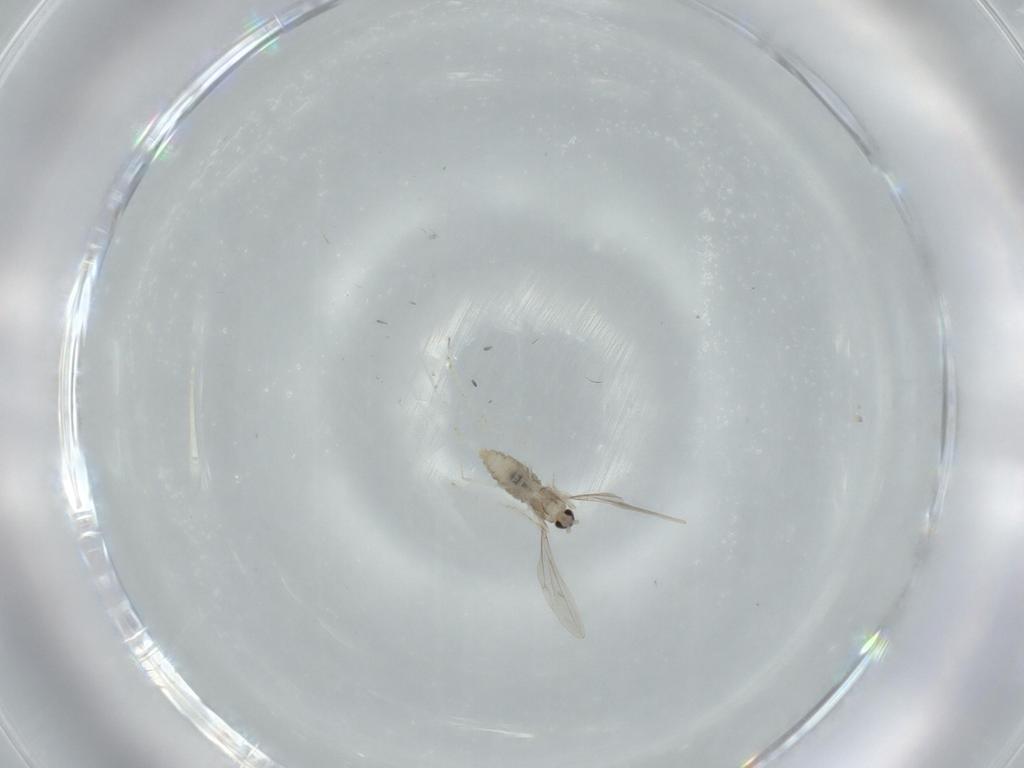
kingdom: Animalia
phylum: Arthropoda
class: Insecta
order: Diptera
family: Cecidomyiidae
